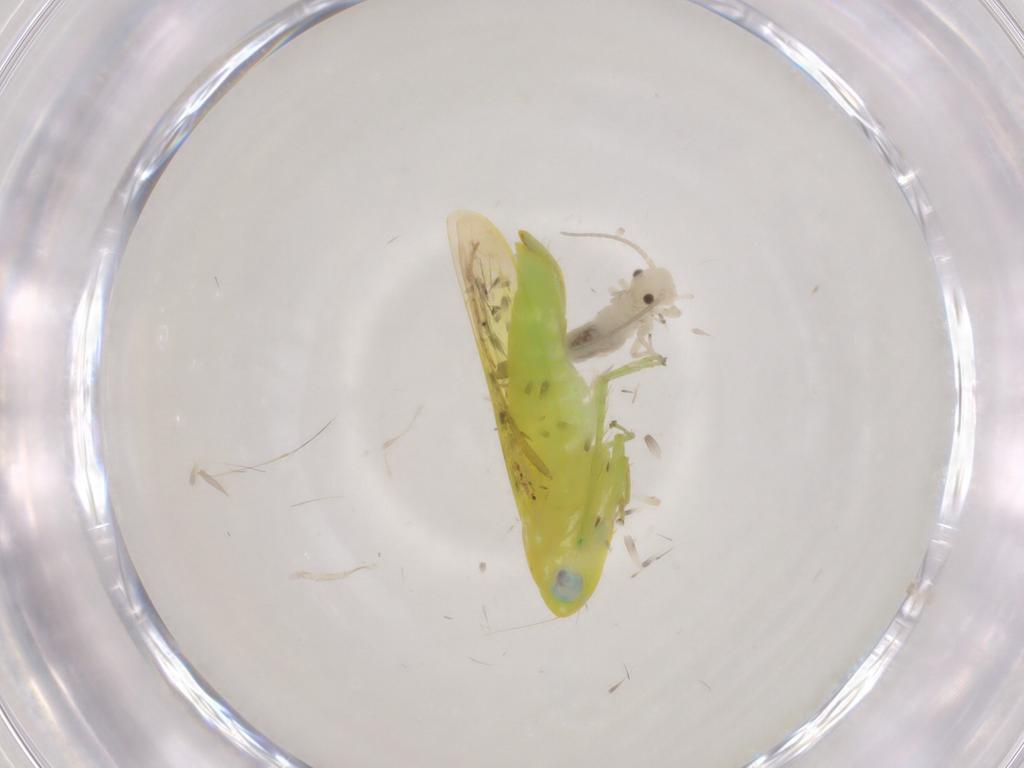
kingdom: Animalia
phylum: Arthropoda
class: Insecta
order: Hemiptera
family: Cicadellidae
